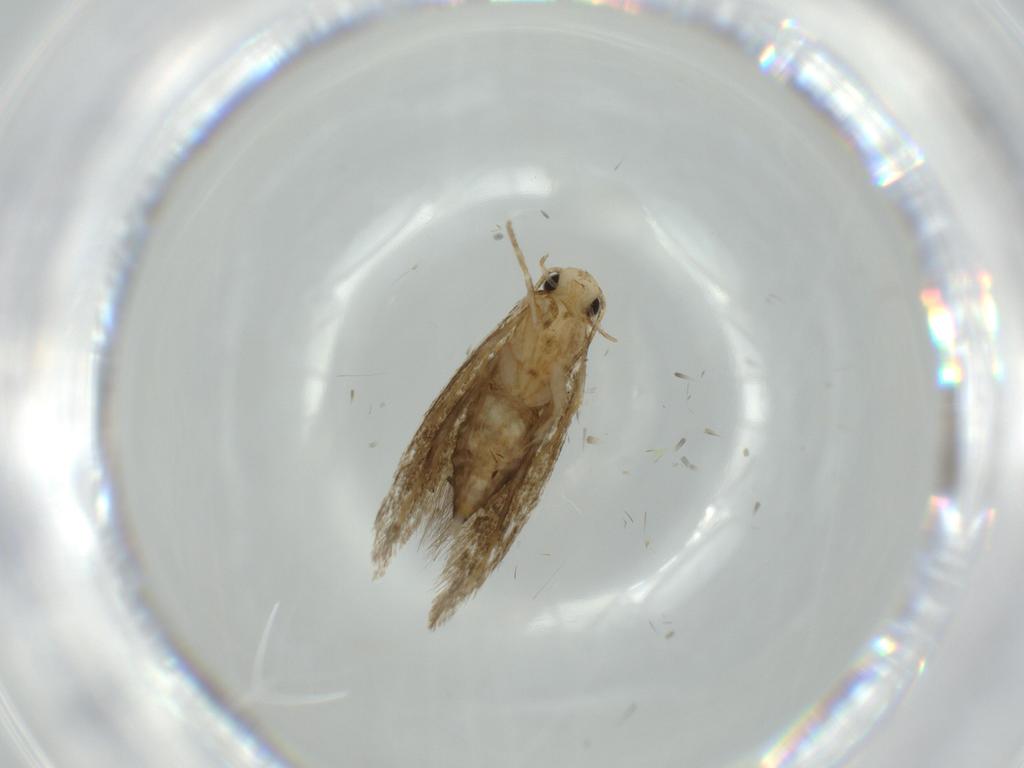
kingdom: Animalia
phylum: Arthropoda
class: Insecta
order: Lepidoptera
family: Tineidae
